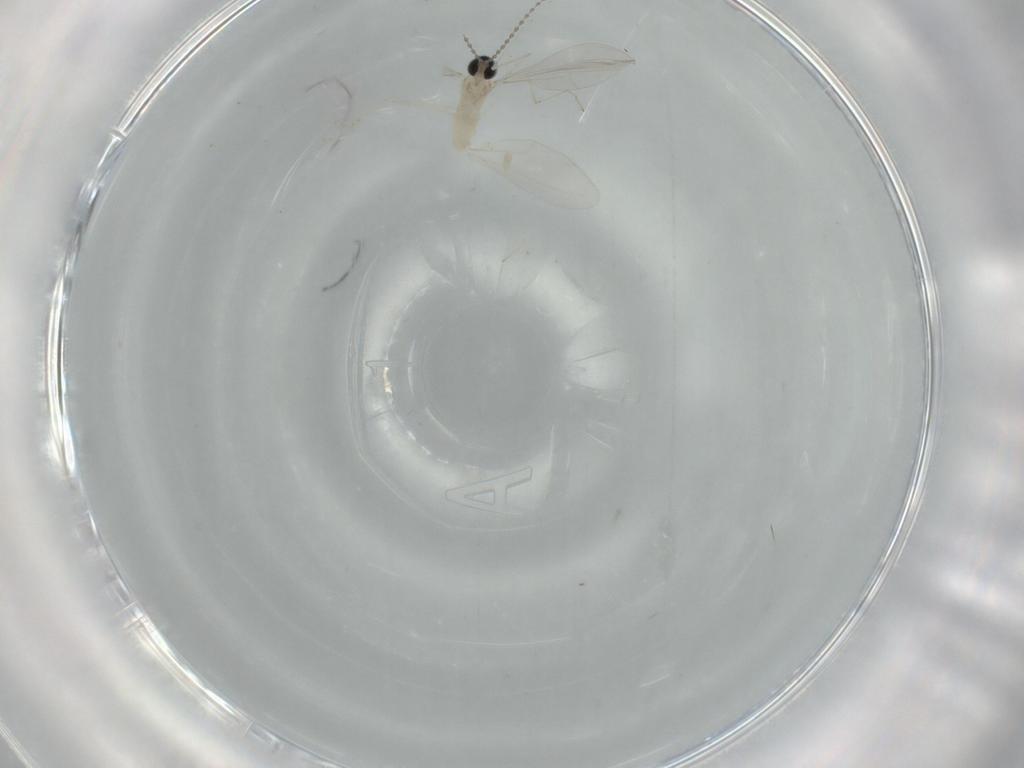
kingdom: Animalia
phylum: Arthropoda
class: Insecta
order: Diptera
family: Cecidomyiidae
